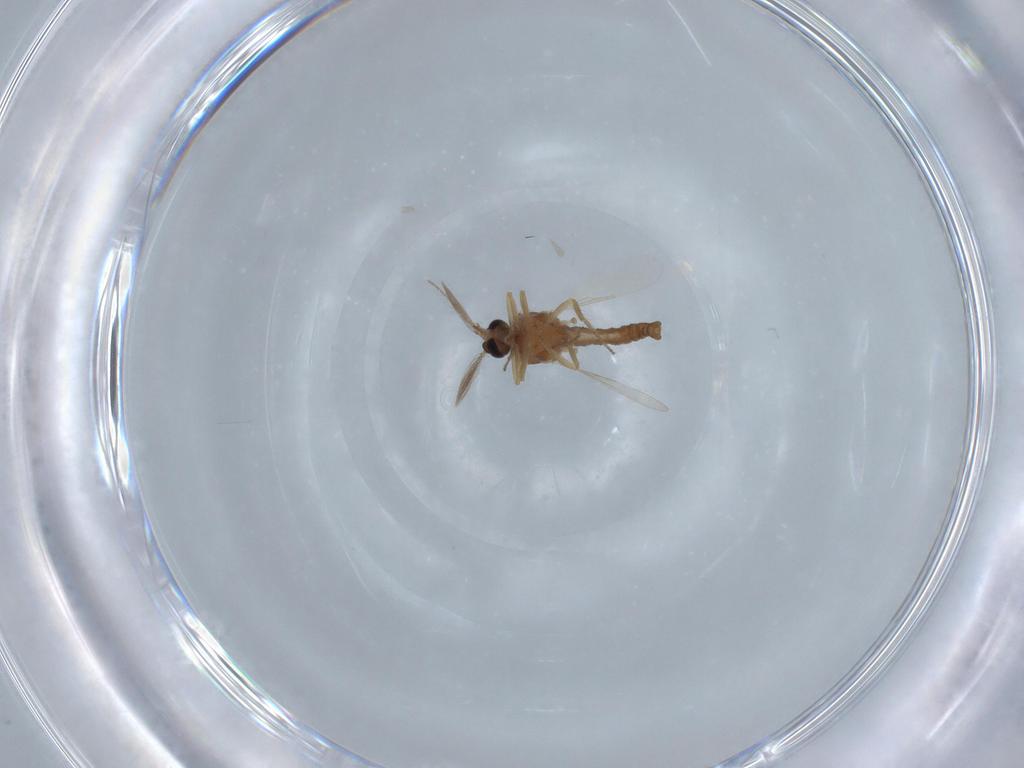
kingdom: Animalia
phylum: Arthropoda
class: Insecta
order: Diptera
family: Ceratopogonidae
